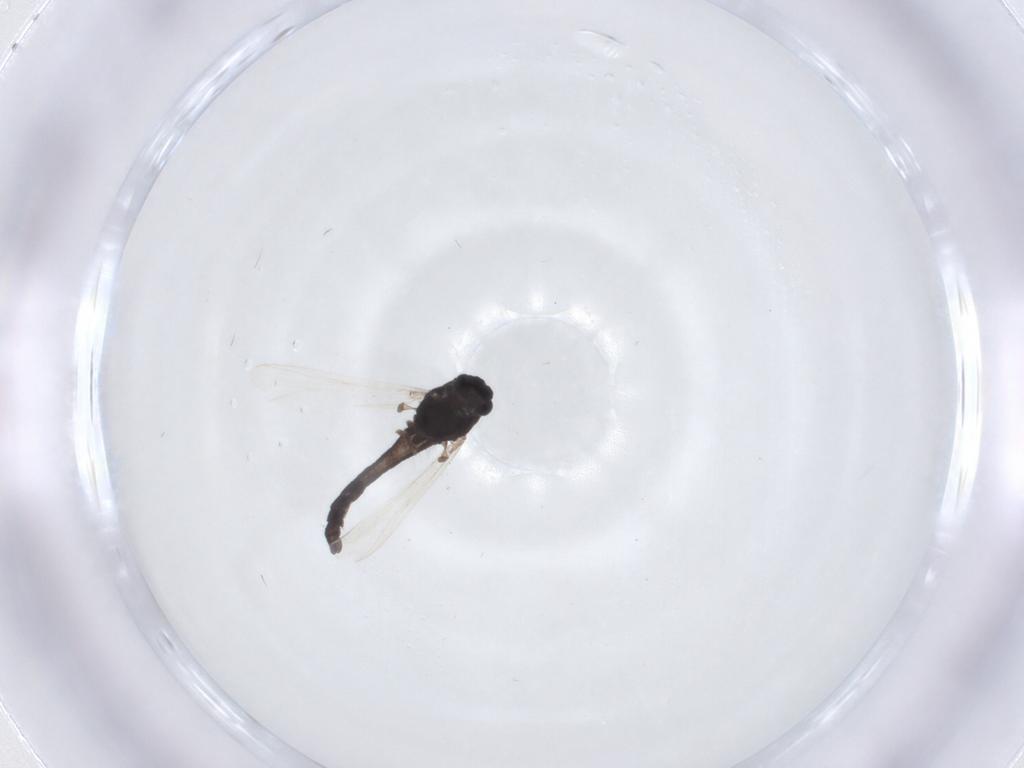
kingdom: Animalia
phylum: Arthropoda
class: Insecta
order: Diptera
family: Chironomidae
